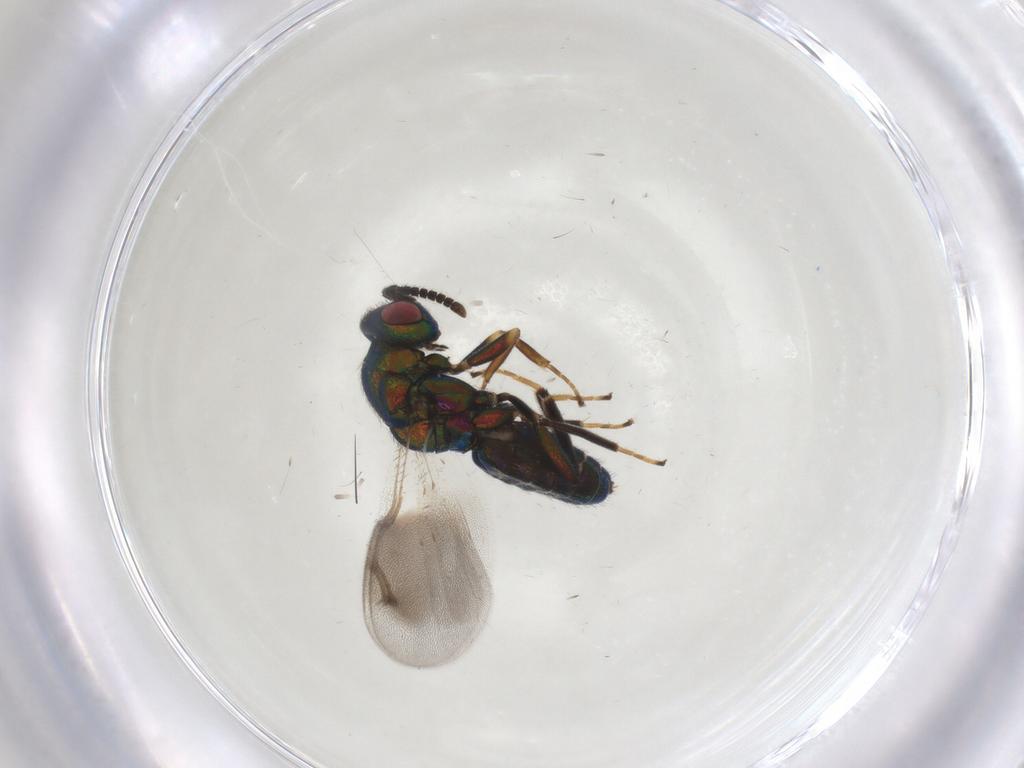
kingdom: Animalia
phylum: Arthropoda
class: Insecta
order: Hymenoptera
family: Pteromalidae
